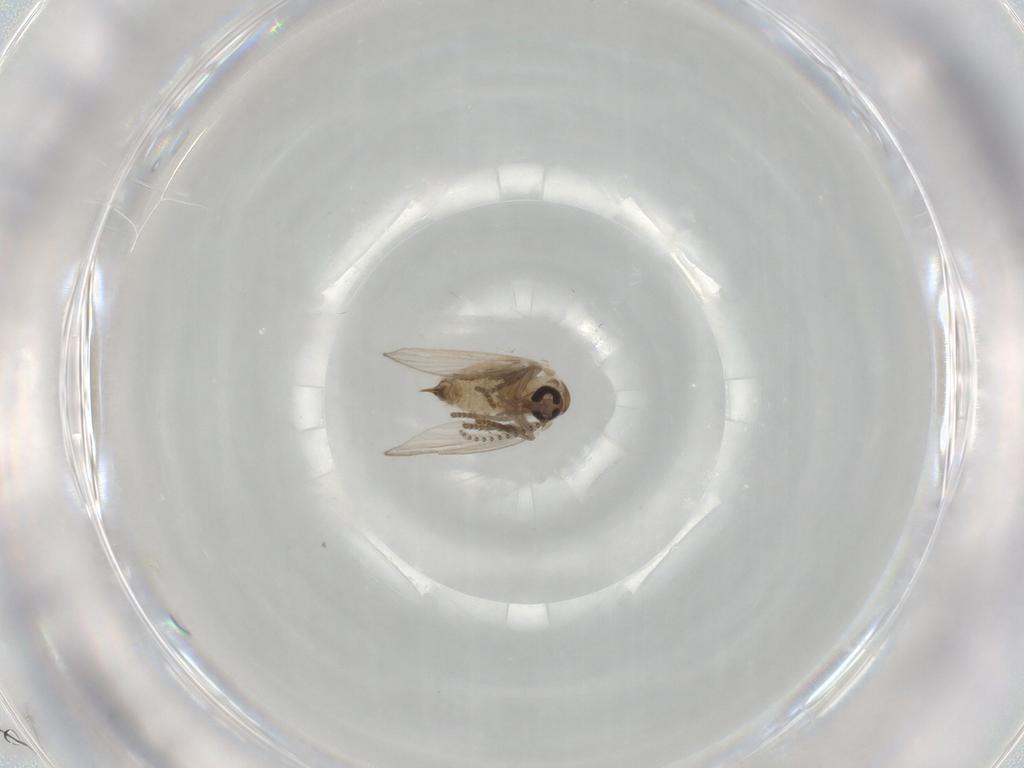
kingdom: Animalia
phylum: Arthropoda
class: Insecta
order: Diptera
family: Psychodidae
